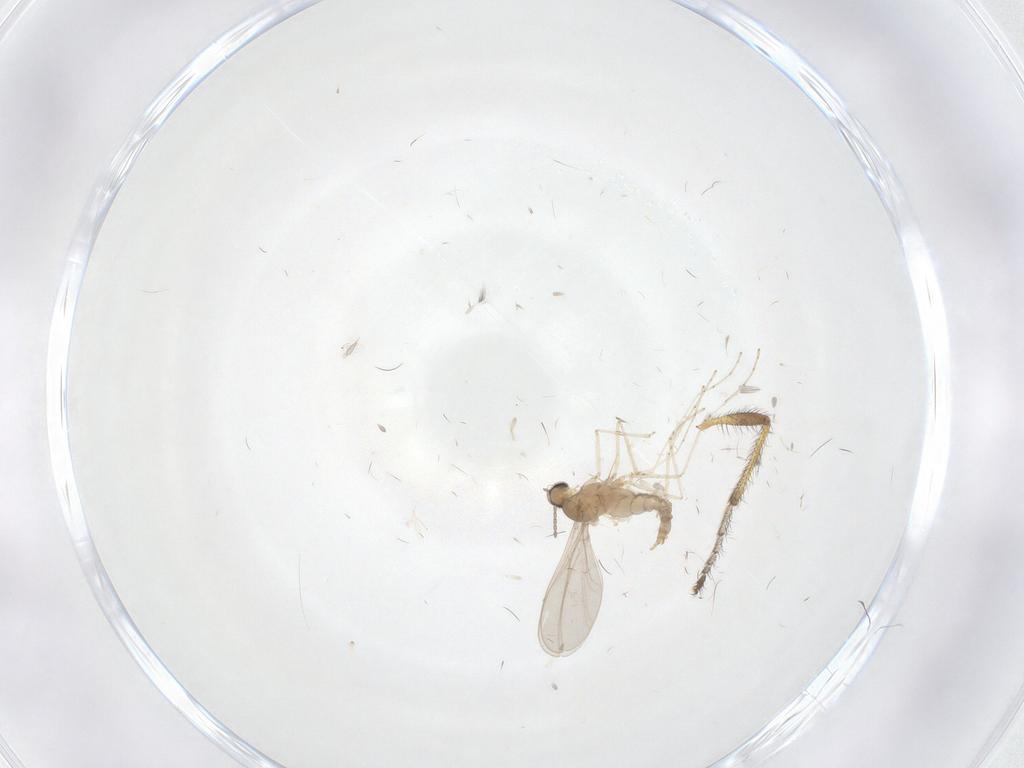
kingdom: Animalia
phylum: Arthropoda
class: Insecta
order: Diptera
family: Bibionidae
